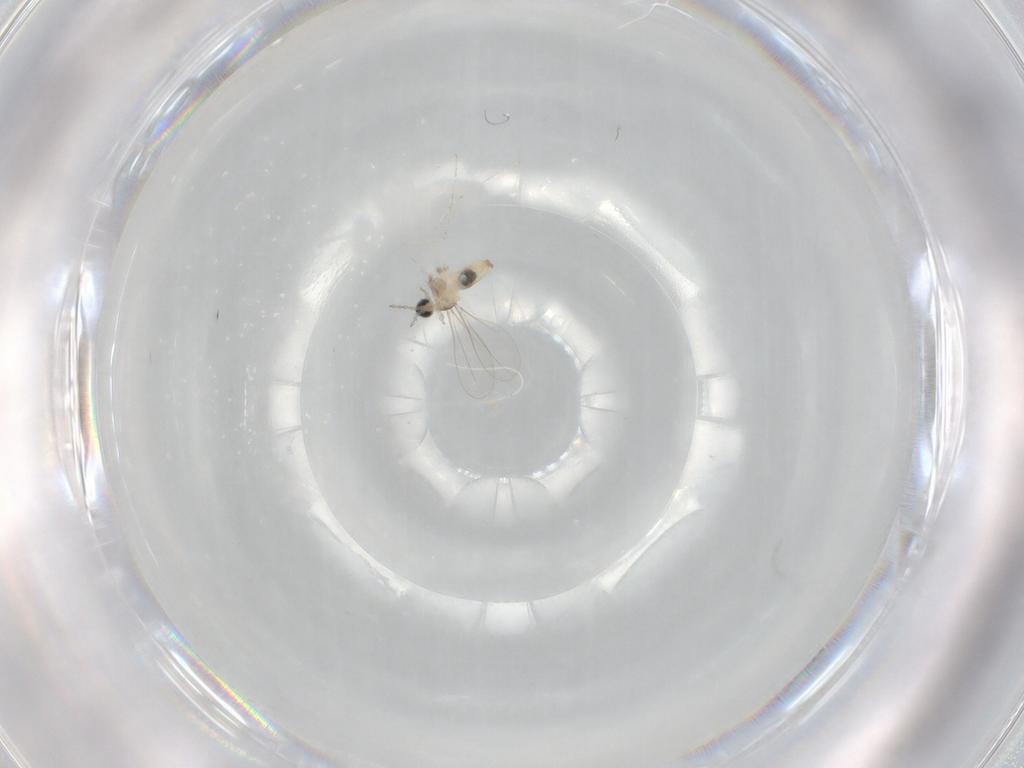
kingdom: Animalia
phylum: Arthropoda
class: Insecta
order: Diptera
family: Cecidomyiidae
